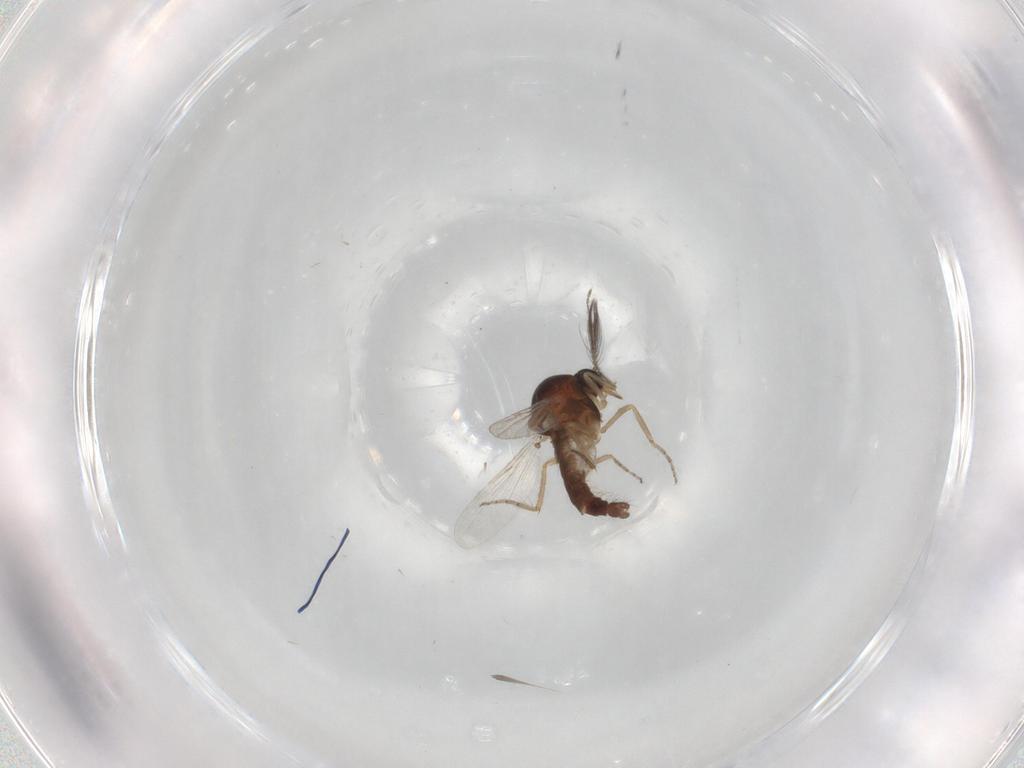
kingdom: Animalia
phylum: Arthropoda
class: Insecta
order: Diptera
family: Ceratopogonidae
